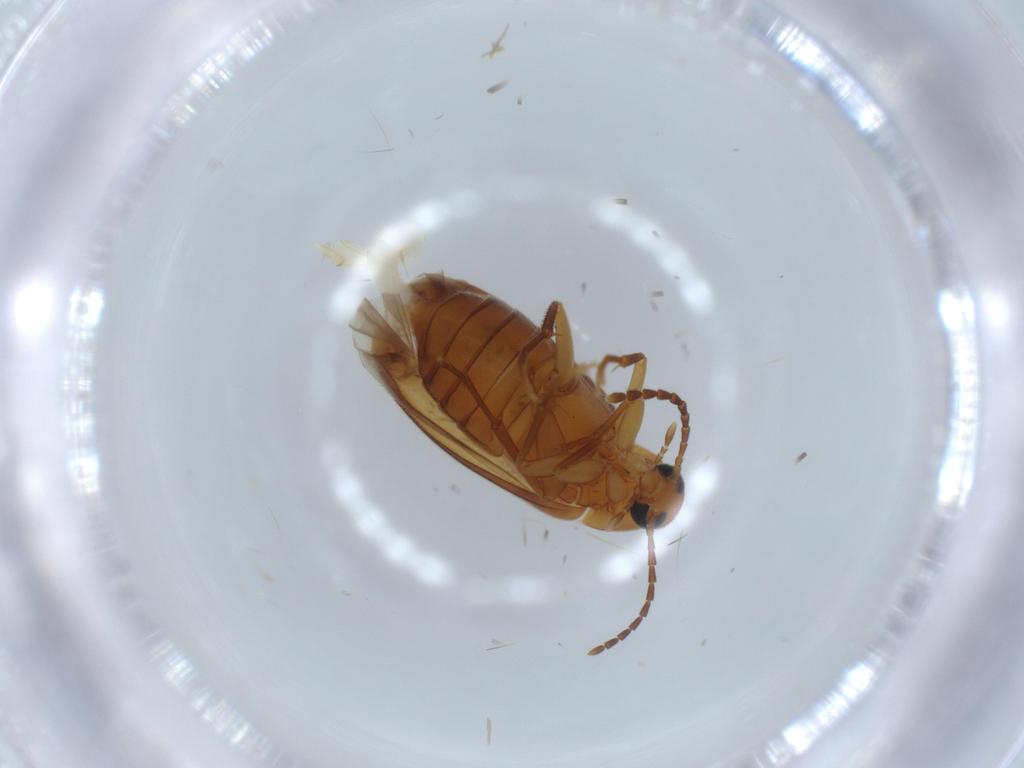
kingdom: Animalia
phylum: Arthropoda
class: Insecta
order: Coleoptera
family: Scraptiidae
